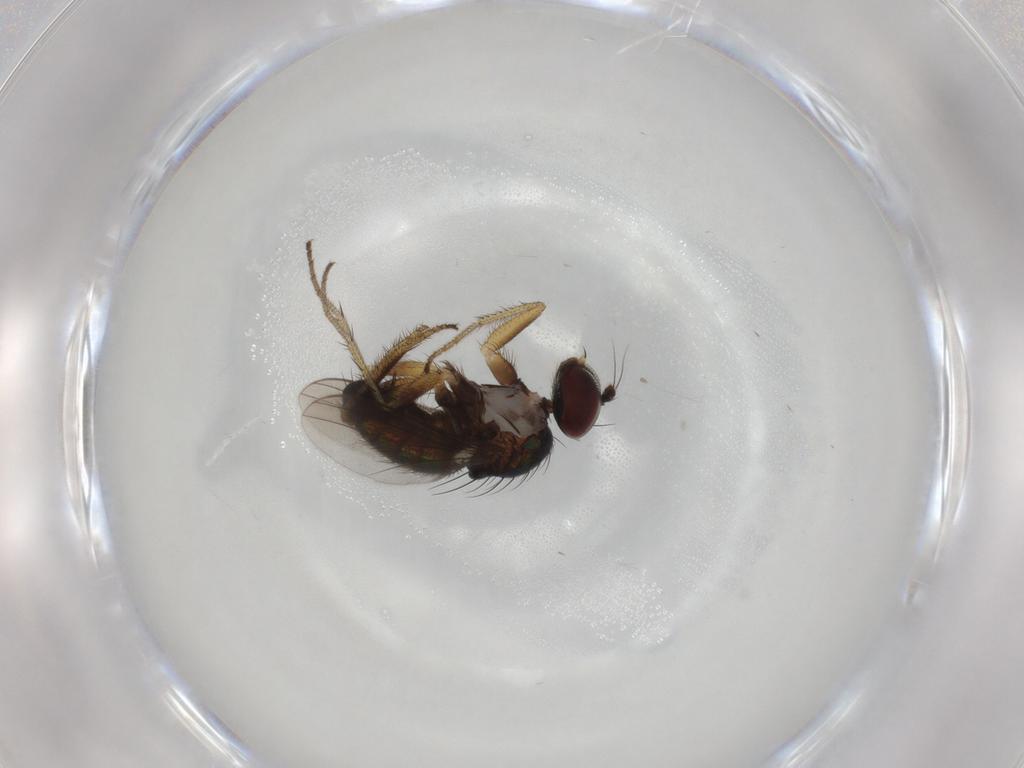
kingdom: Animalia
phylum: Arthropoda
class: Insecta
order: Diptera
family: Dolichopodidae
